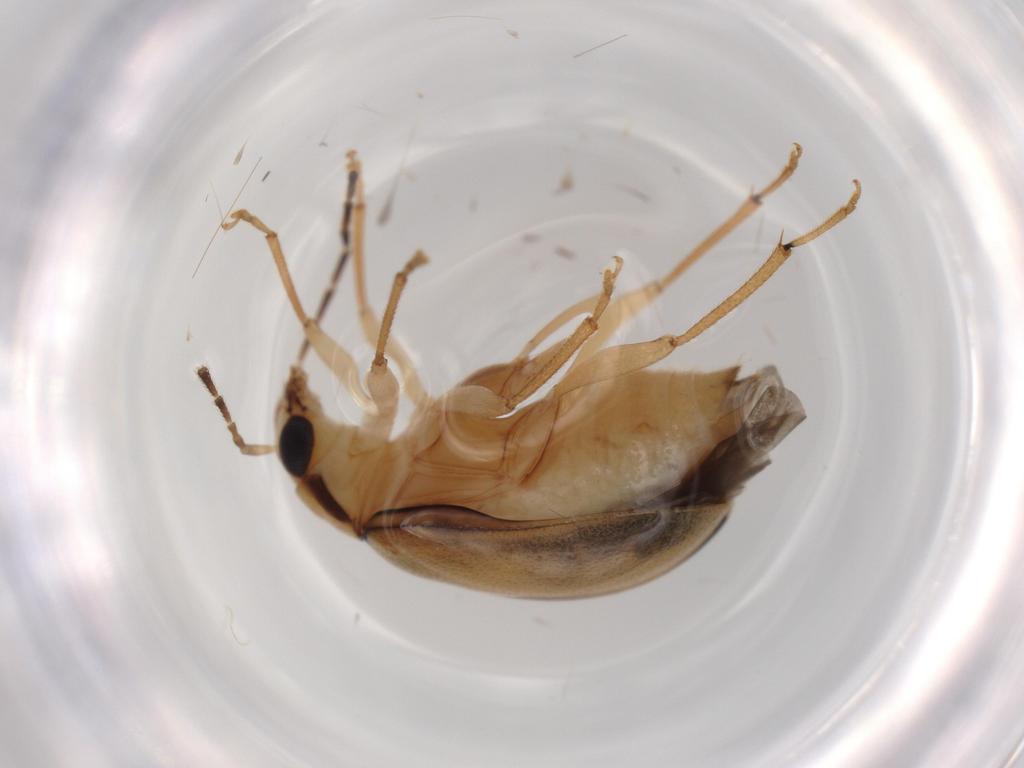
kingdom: Animalia
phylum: Arthropoda
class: Insecta
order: Coleoptera
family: Chrysomelidae
